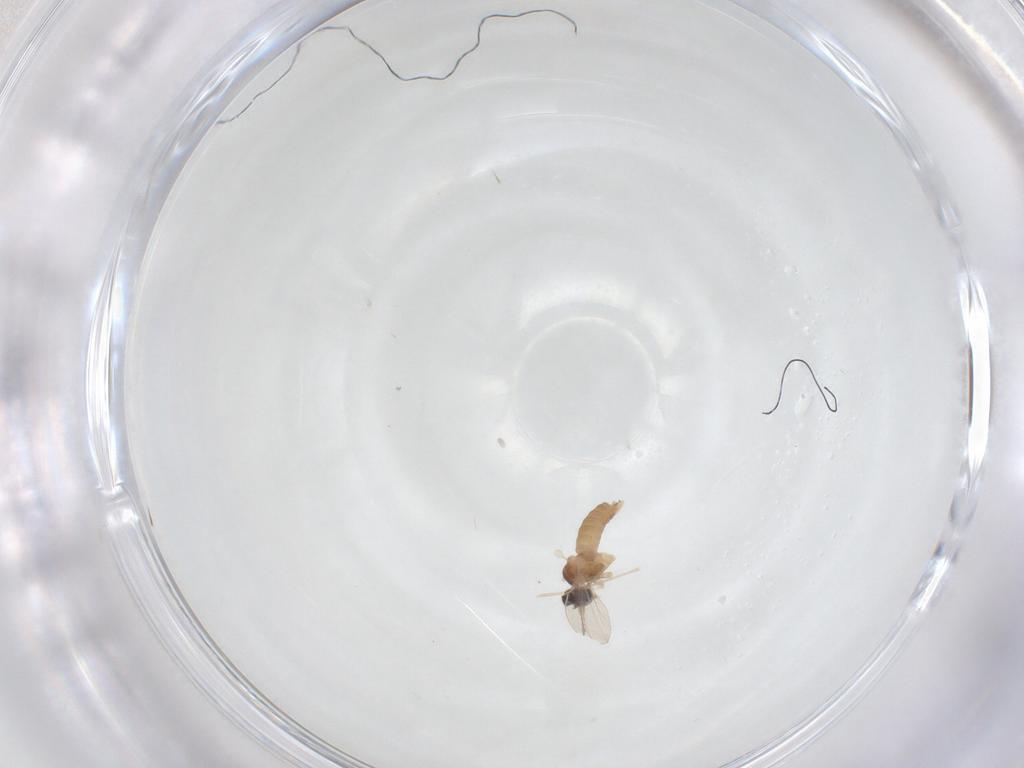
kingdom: Animalia
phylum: Arthropoda
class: Insecta
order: Diptera
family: Cecidomyiidae
